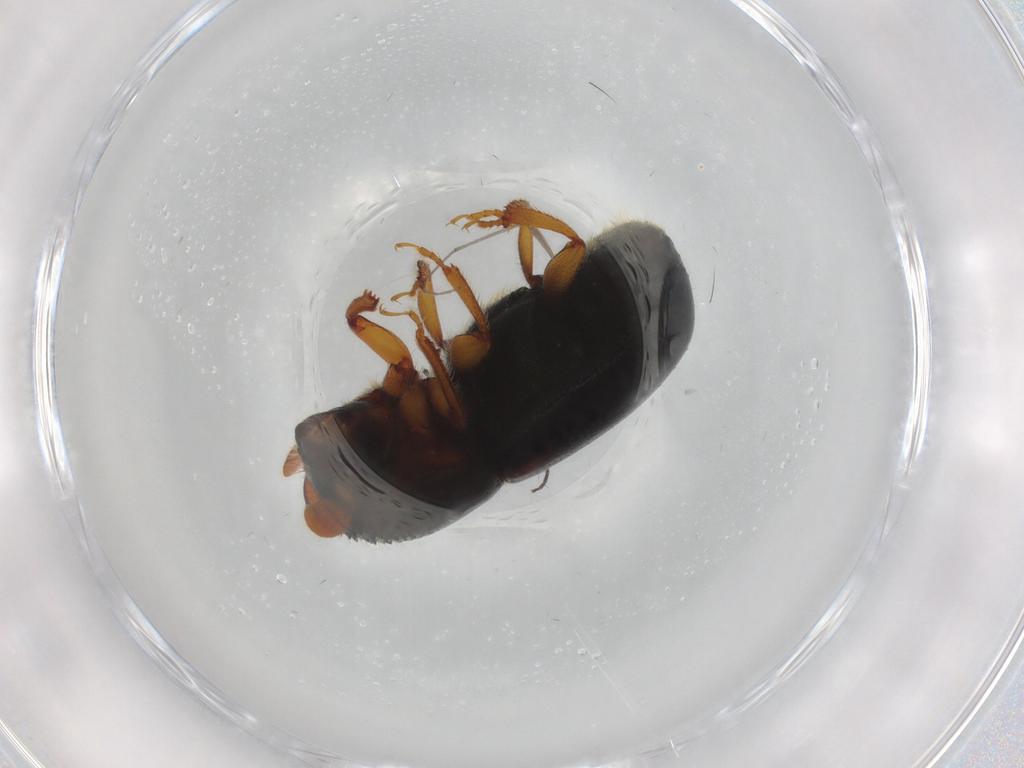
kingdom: Animalia
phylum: Arthropoda
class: Insecta
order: Coleoptera
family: Curculionidae
